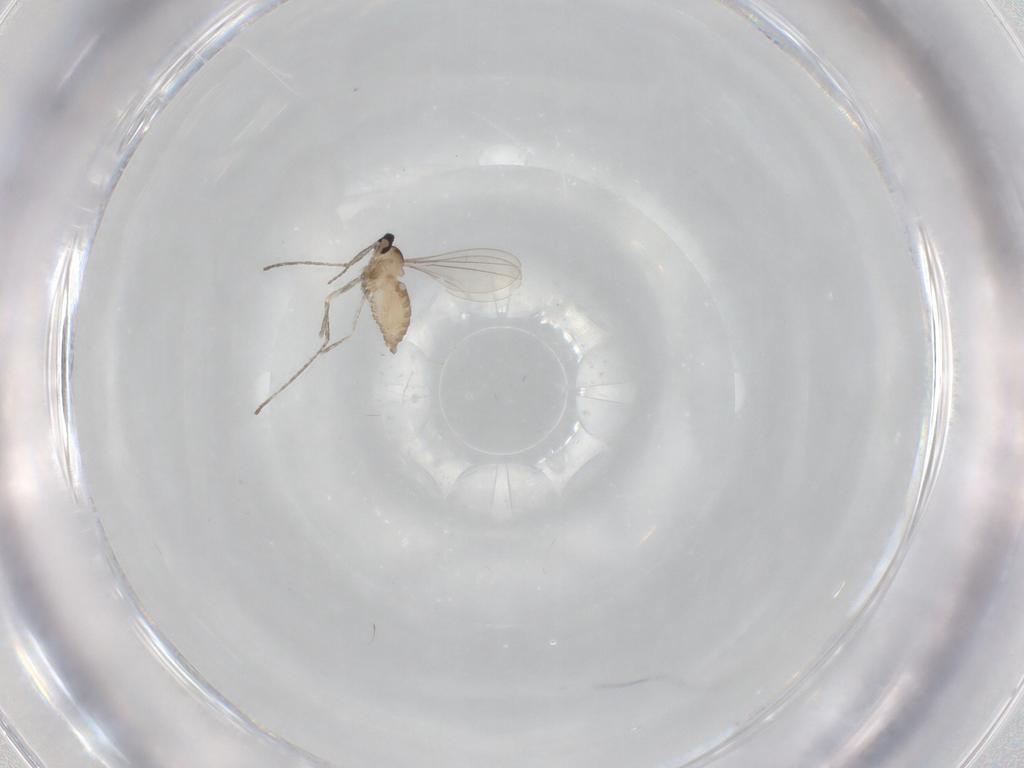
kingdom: Animalia
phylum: Arthropoda
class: Insecta
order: Diptera
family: Cecidomyiidae
